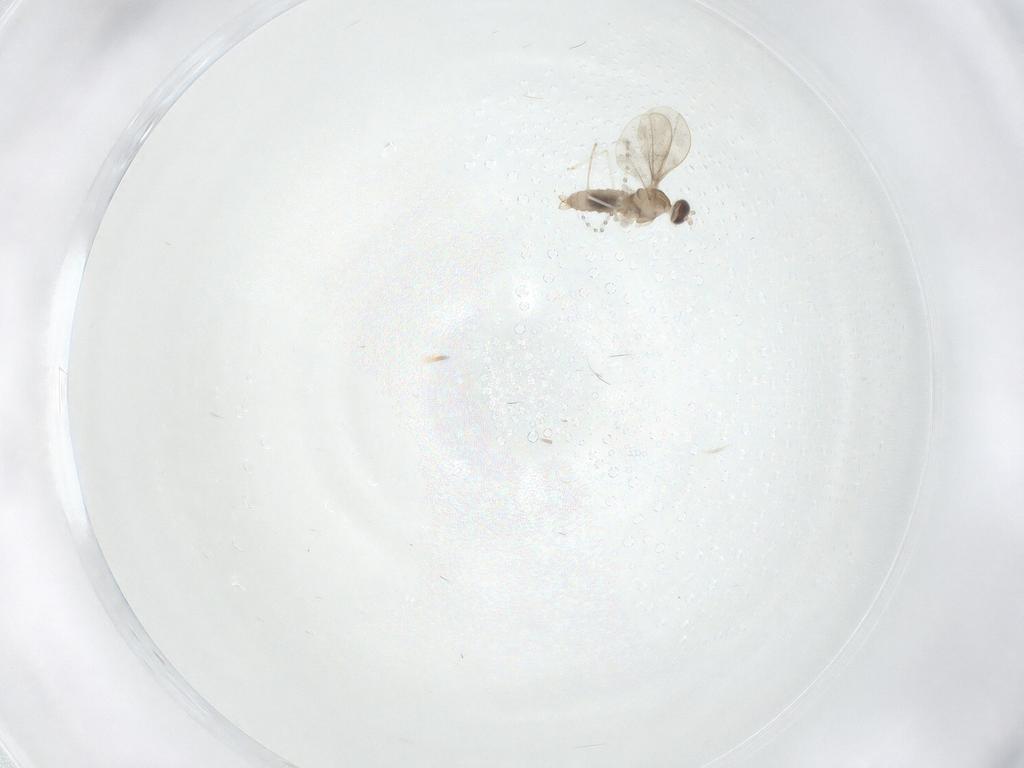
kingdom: Animalia
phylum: Arthropoda
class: Insecta
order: Diptera
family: Cecidomyiidae
